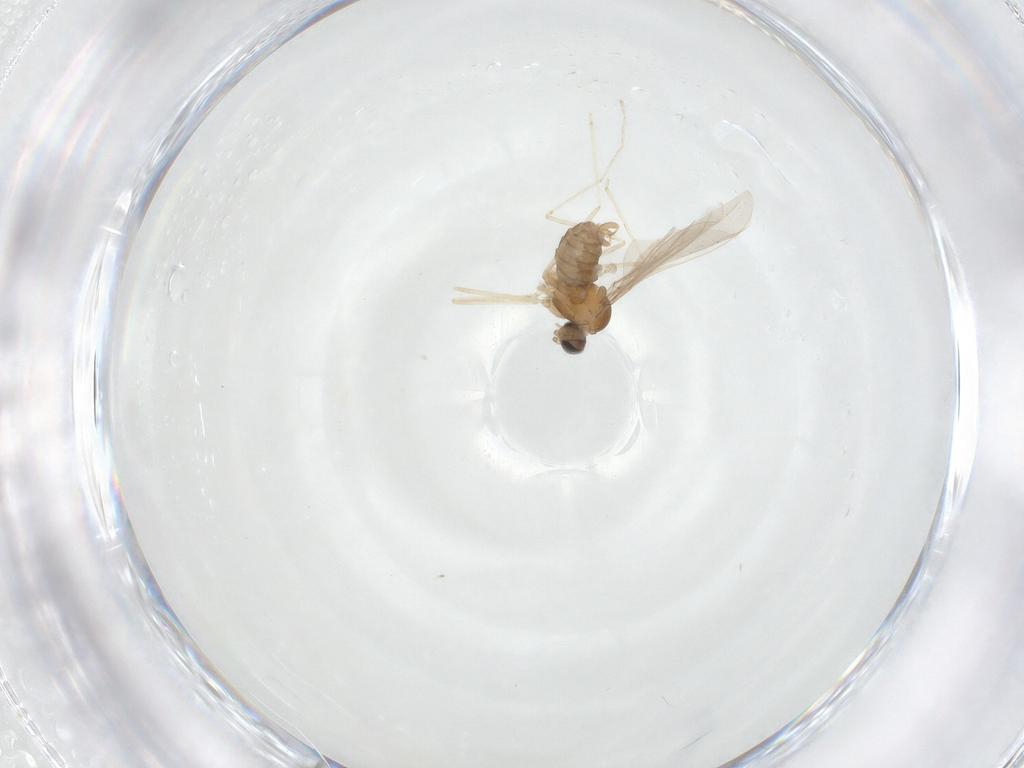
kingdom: Animalia
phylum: Arthropoda
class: Insecta
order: Diptera
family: Cecidomyiidae
